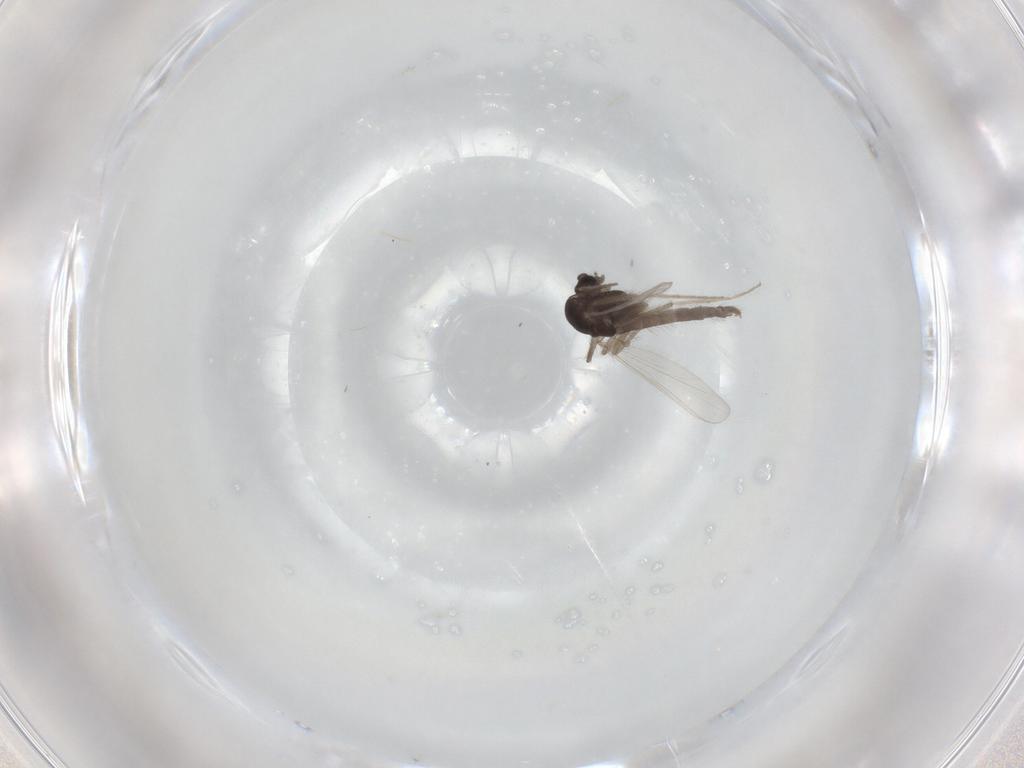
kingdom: Animalia
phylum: Arthropoda
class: Insecta
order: Diptera
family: Chironomidae
